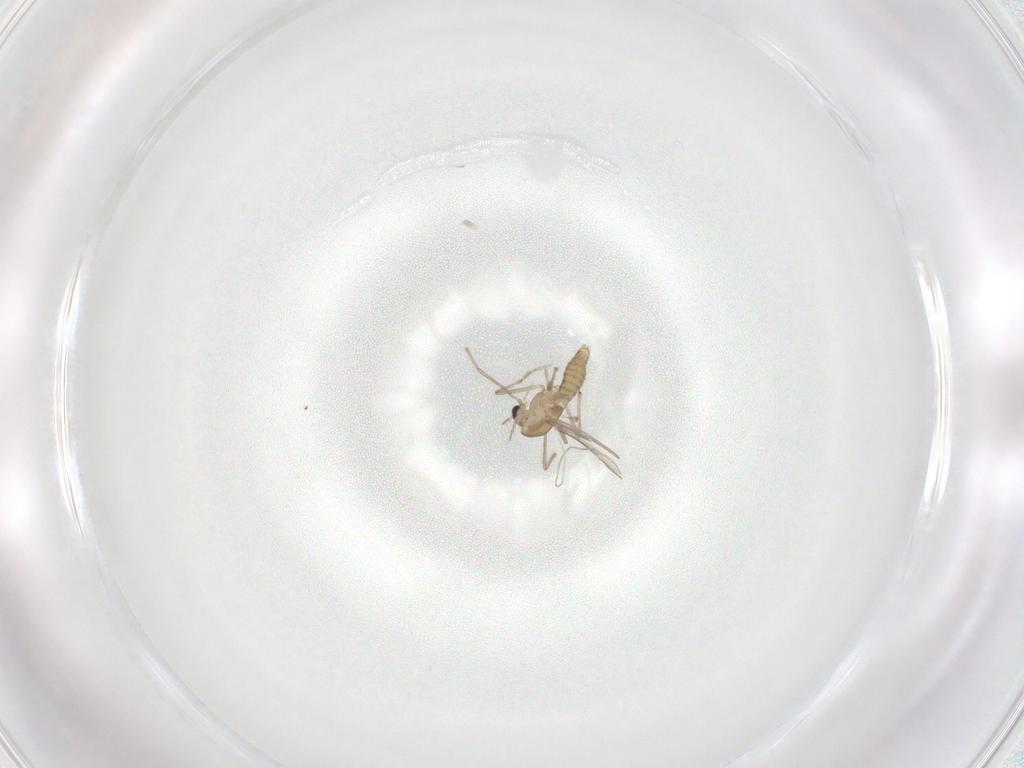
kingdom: Animalia
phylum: Arthropoda
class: Insecta
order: Diptera
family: Chironomidae
